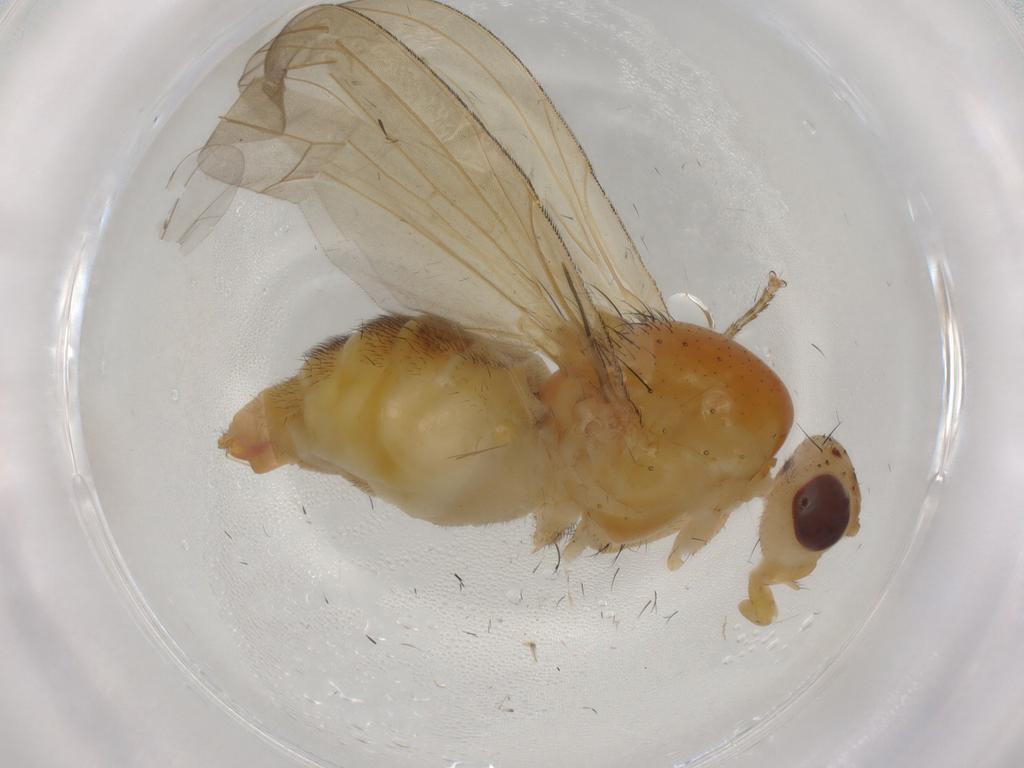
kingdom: Animalia
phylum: Arthropoda
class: Insecta
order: Diptera
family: Lauxaniidae
